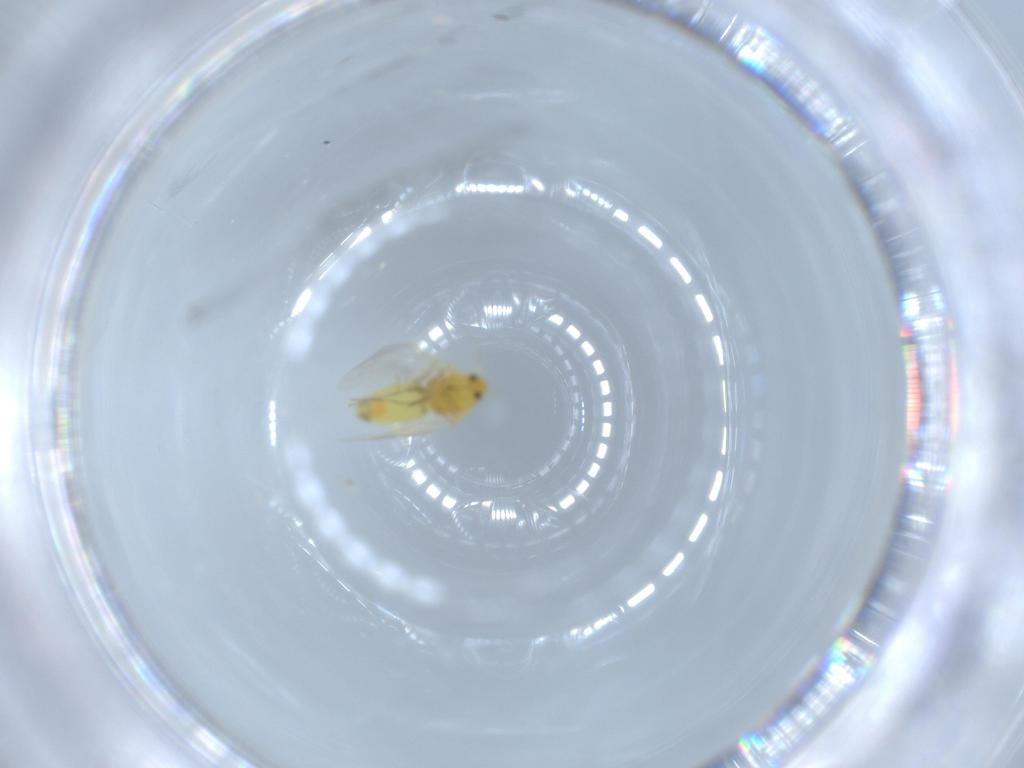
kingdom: Animalia
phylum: Arthropoda
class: Insecta
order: Hemiptera
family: Aleyrodidae
